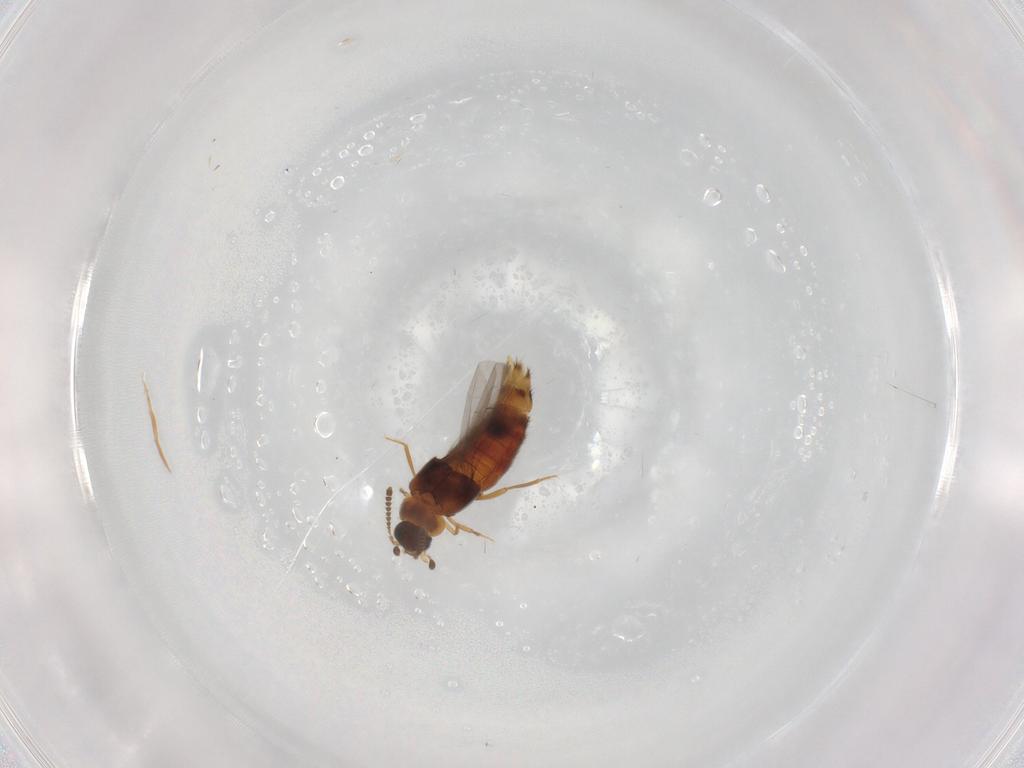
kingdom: Animalia
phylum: Arthropoda
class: Insecta
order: Coleoptera
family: Staphylinidae
